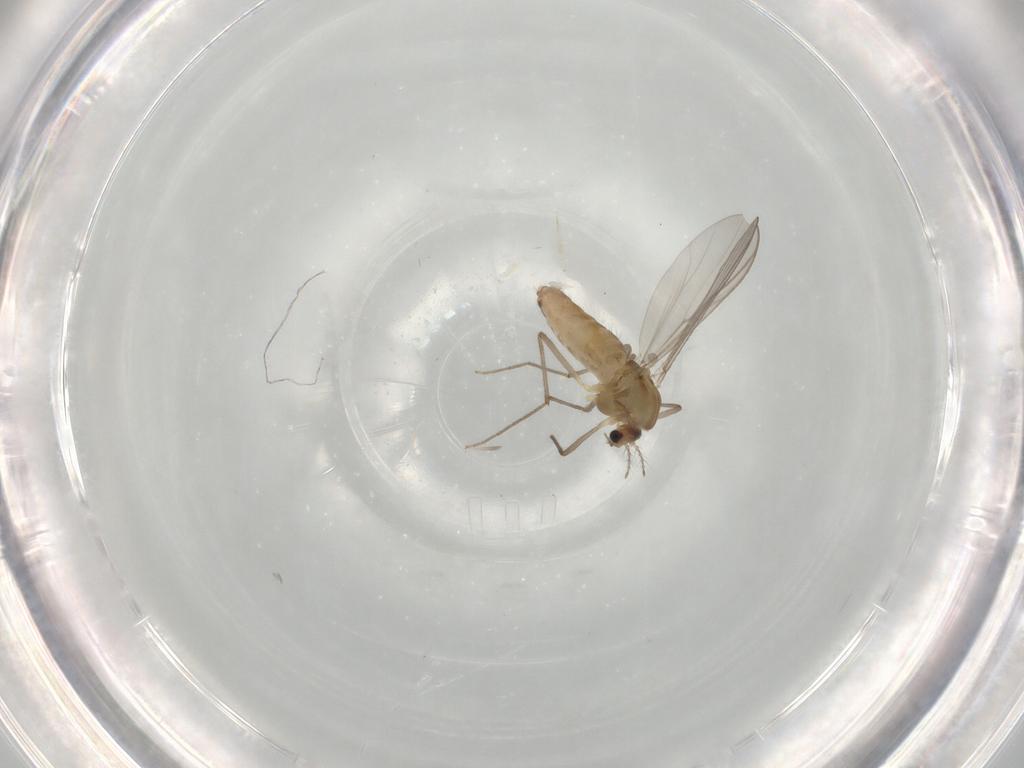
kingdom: Animalia
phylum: Arthropoda
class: Insecta
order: Diptera
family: Chironomidae
